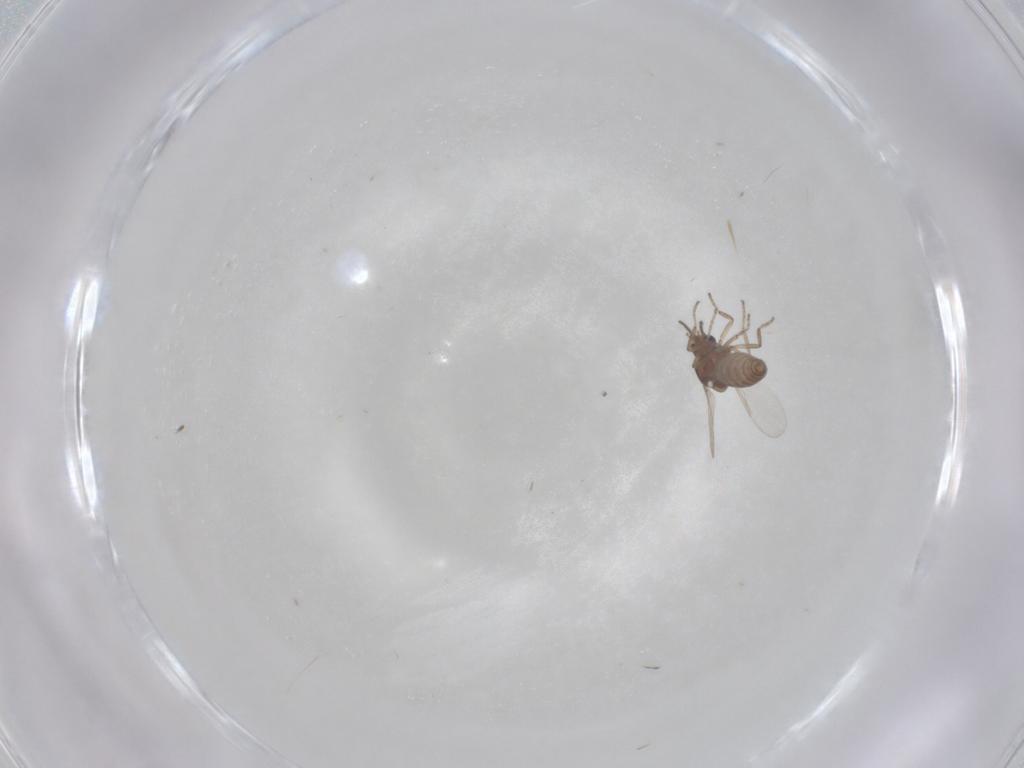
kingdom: Animalia
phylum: Arthropoda
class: Insecta
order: Diptera
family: Ceratopogonidae
